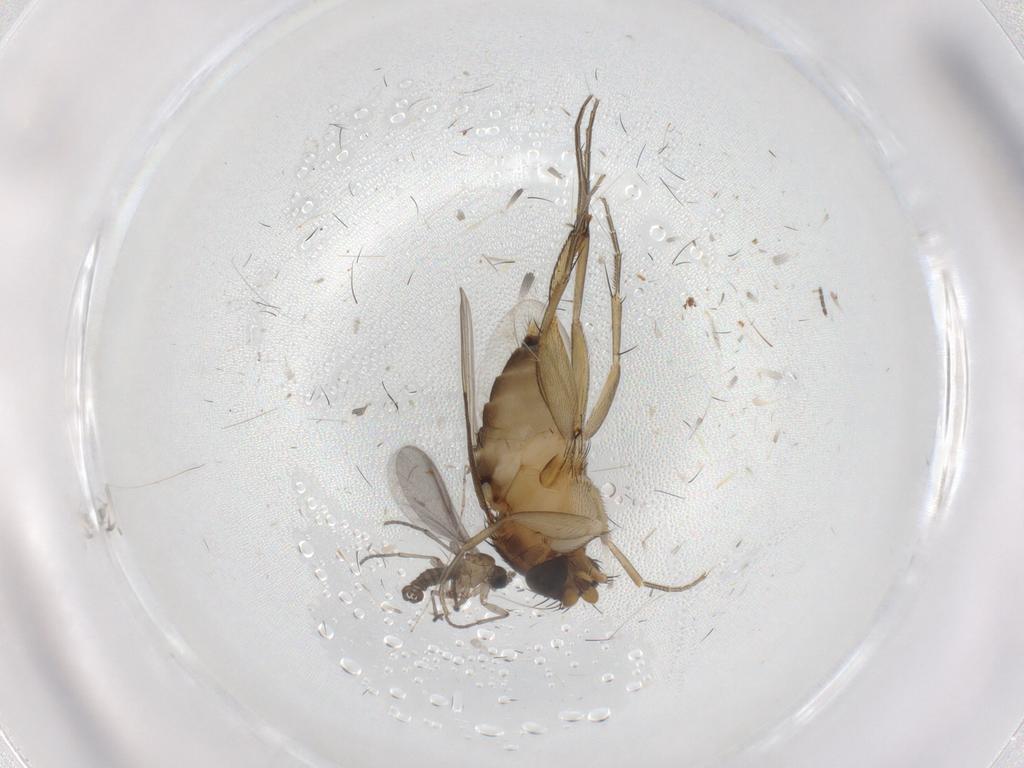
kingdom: Animalia
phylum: Arthropoda
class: Insecta
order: Diptera
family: Phoridae
